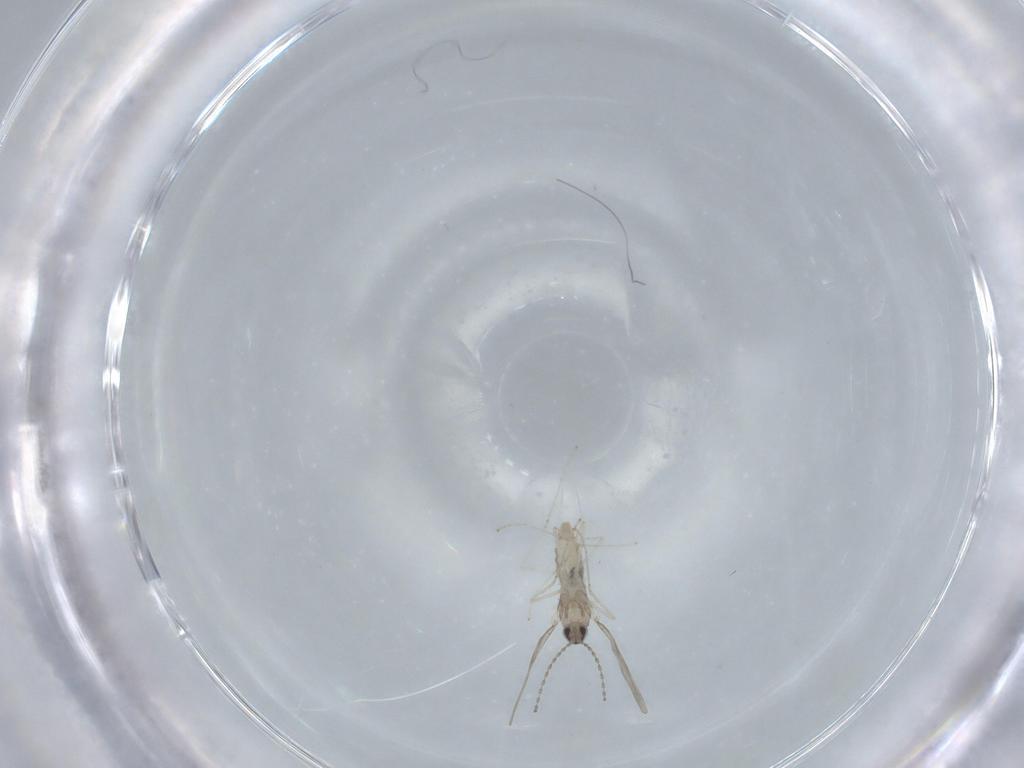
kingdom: Animalia
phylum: Arthropoda
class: Insecta
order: Diptera
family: Cecidomyiidae
